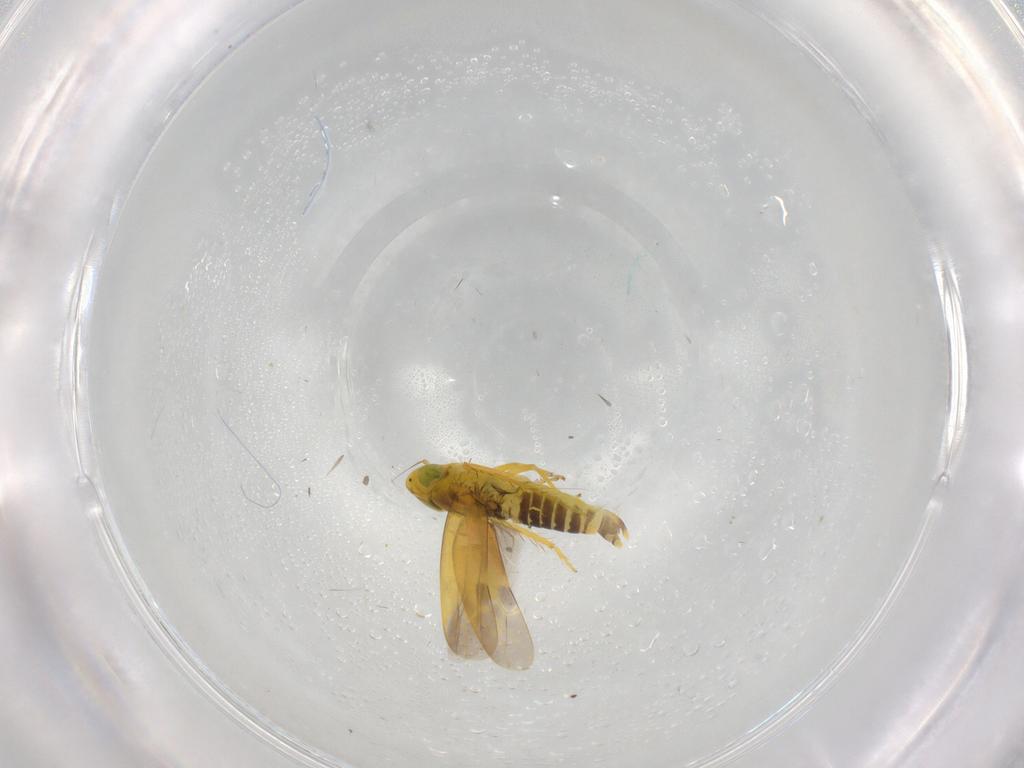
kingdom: Animalia
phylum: Arthropoda
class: Insecta
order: Hemiptera
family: Cicadellidae
